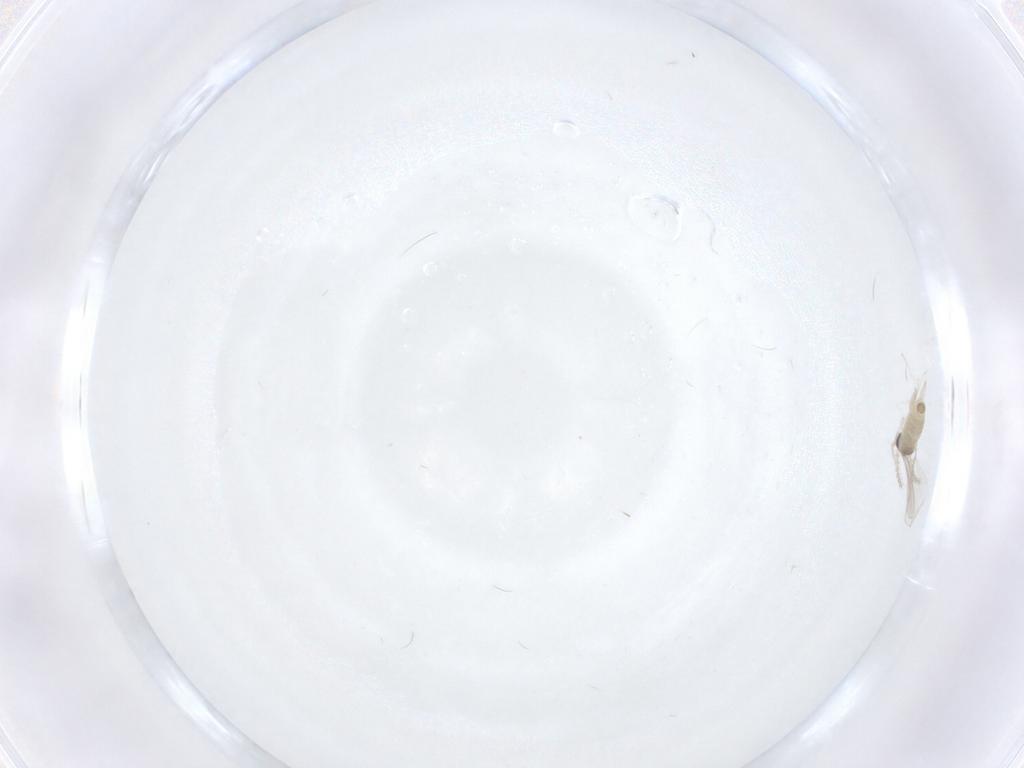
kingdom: Animalia
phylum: Arthropoda
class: Insecta
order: Diptera
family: Cecidomyiidae
